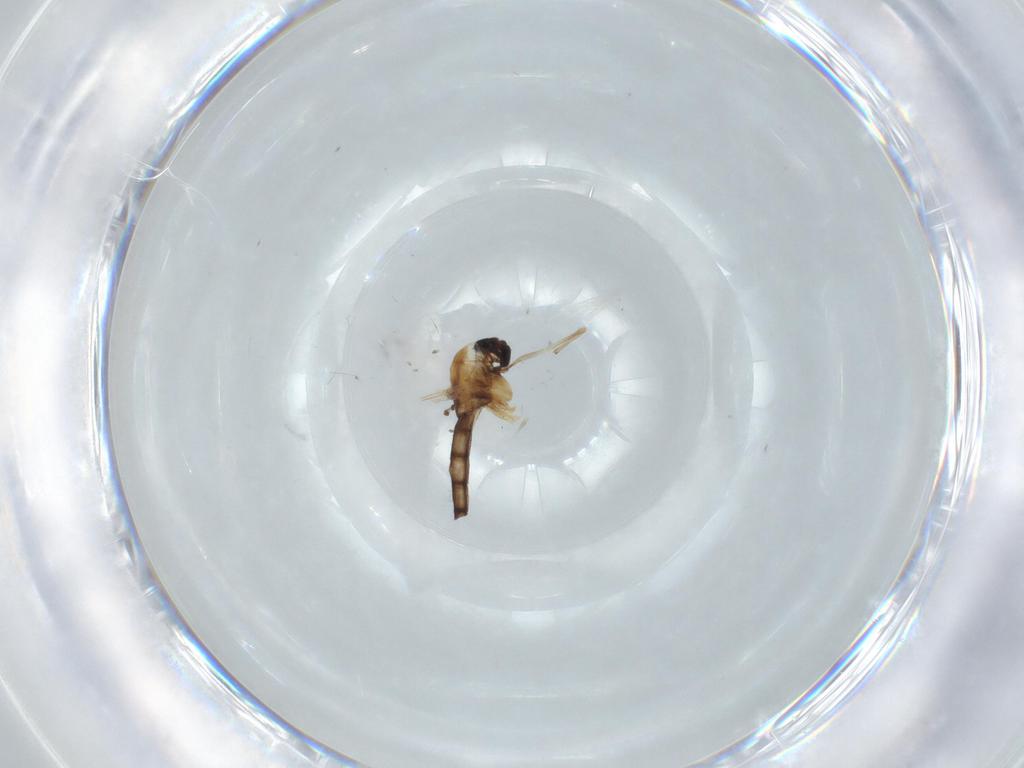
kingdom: Animalia
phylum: Arthropoda
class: Insecta
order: Diptera
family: Chironomidae
